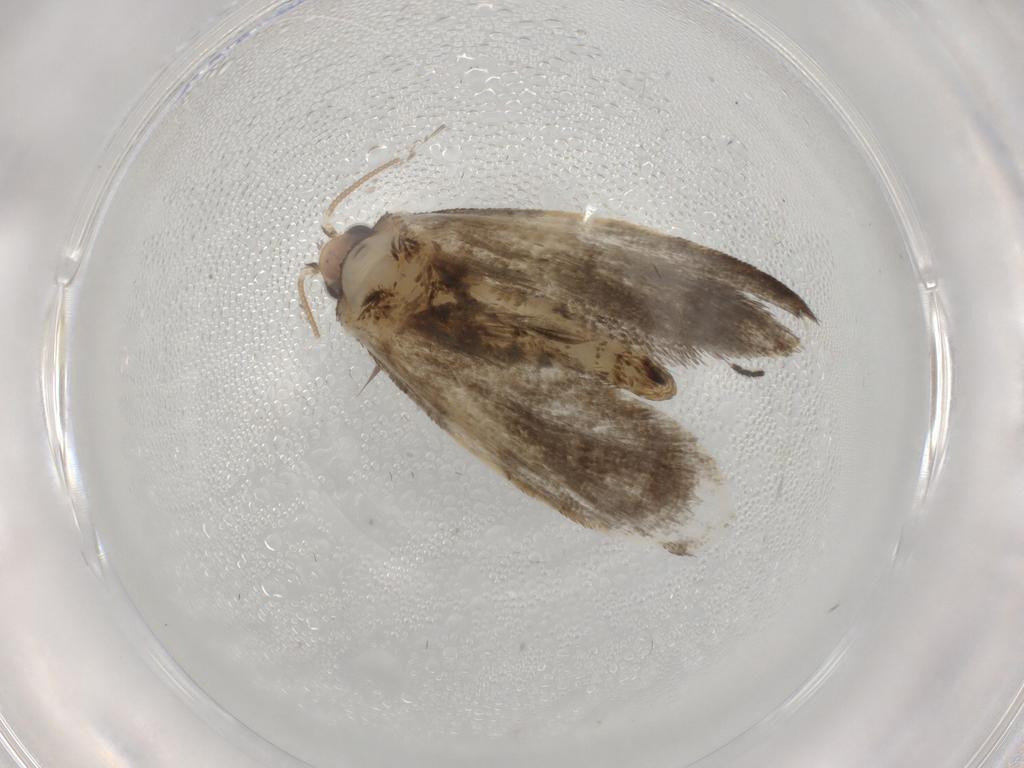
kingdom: Animalia
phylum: Arthropoda
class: Insecta
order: Lepidoptera
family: Psychidae
